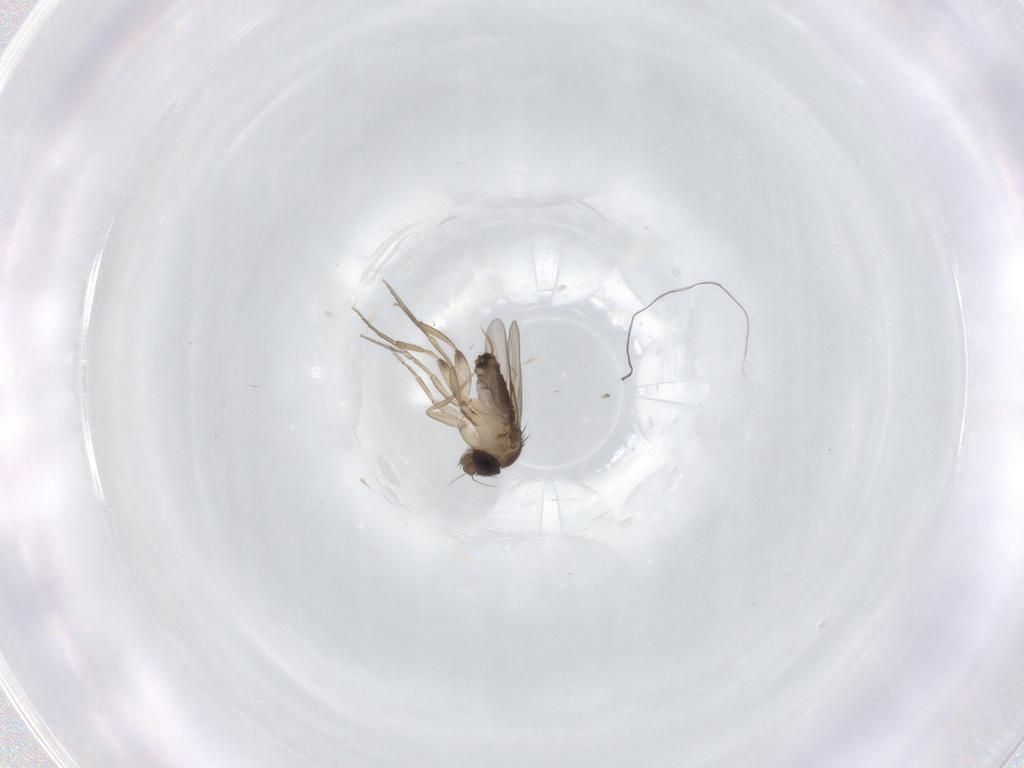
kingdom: Animalia
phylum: Arthropoda
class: Insecta
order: Diptera
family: Phoridae
